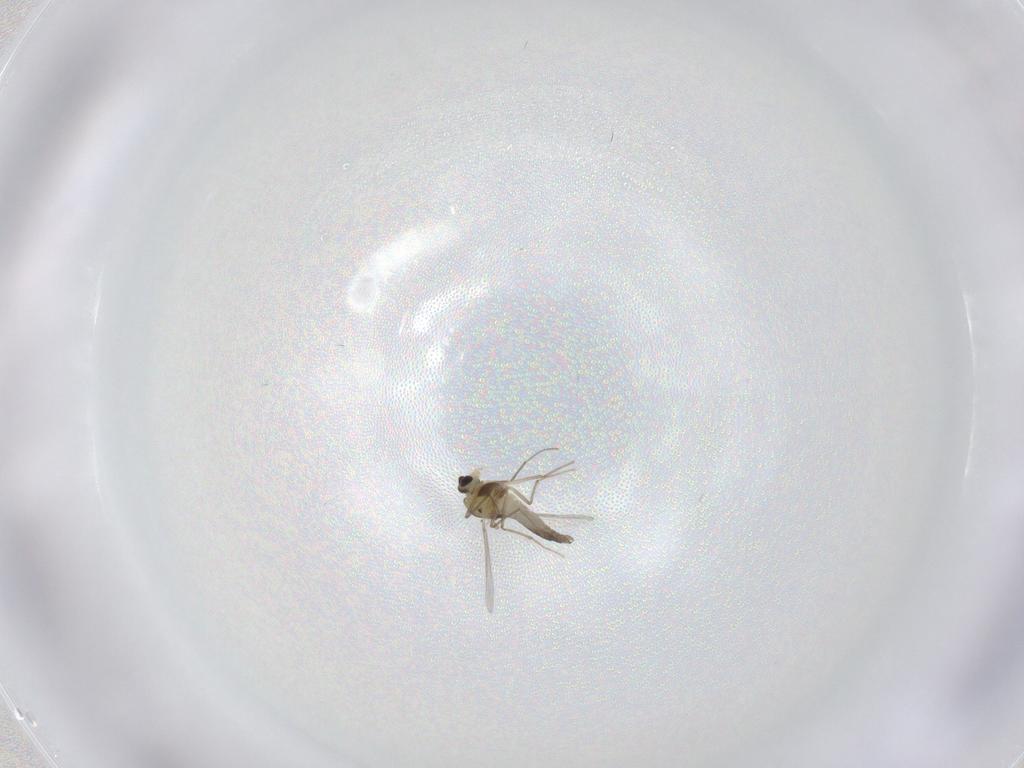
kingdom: Animalia
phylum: Arthropoda
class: Insecta
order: Diptera
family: Chironomidae
